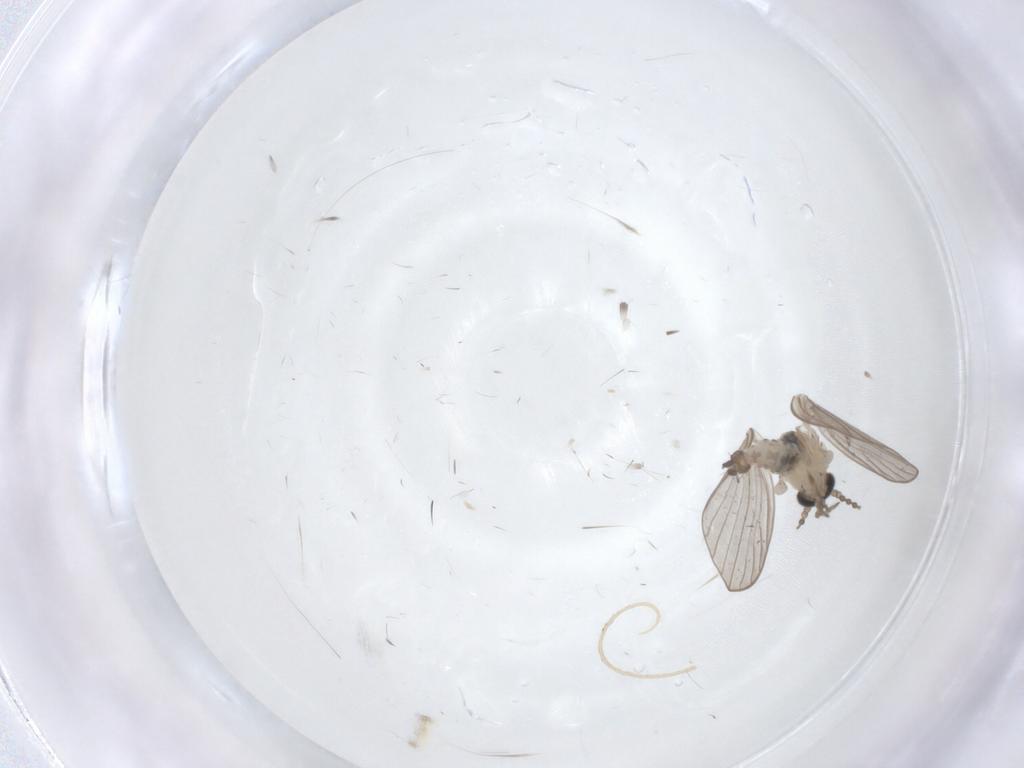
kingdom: Animalia
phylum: Arthropoda
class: Insecta
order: Diptera
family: Psychodidae
